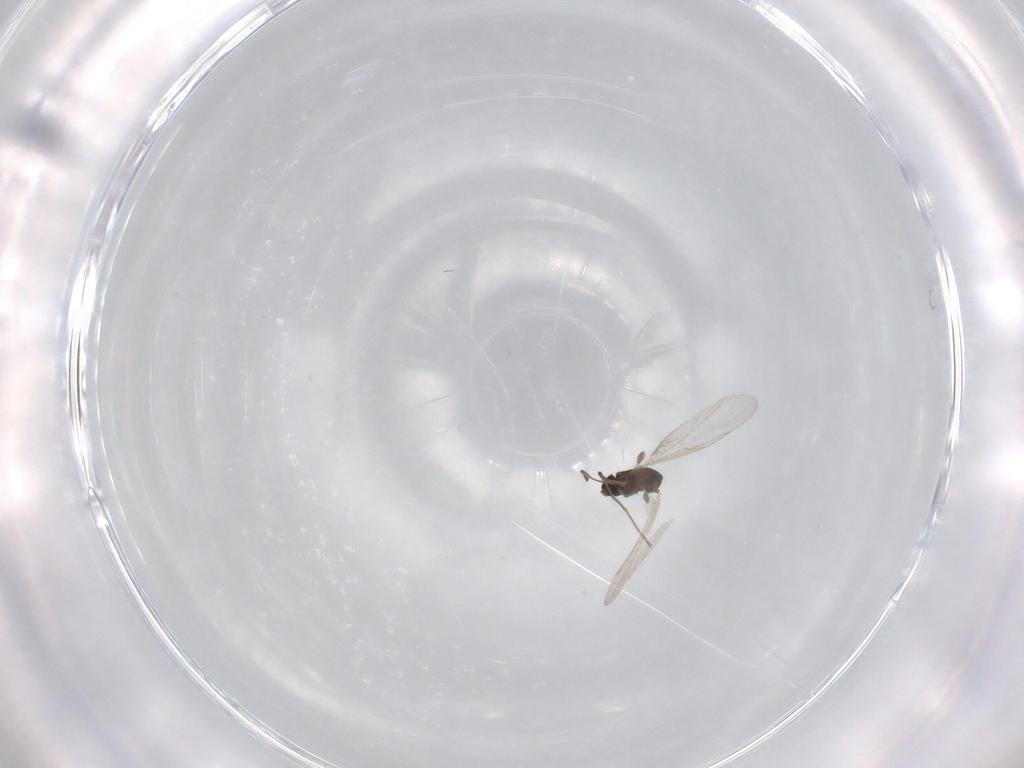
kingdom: Animalia
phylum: Arthropoda
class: Insecta
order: Diptera
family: Cecidomyiidae
